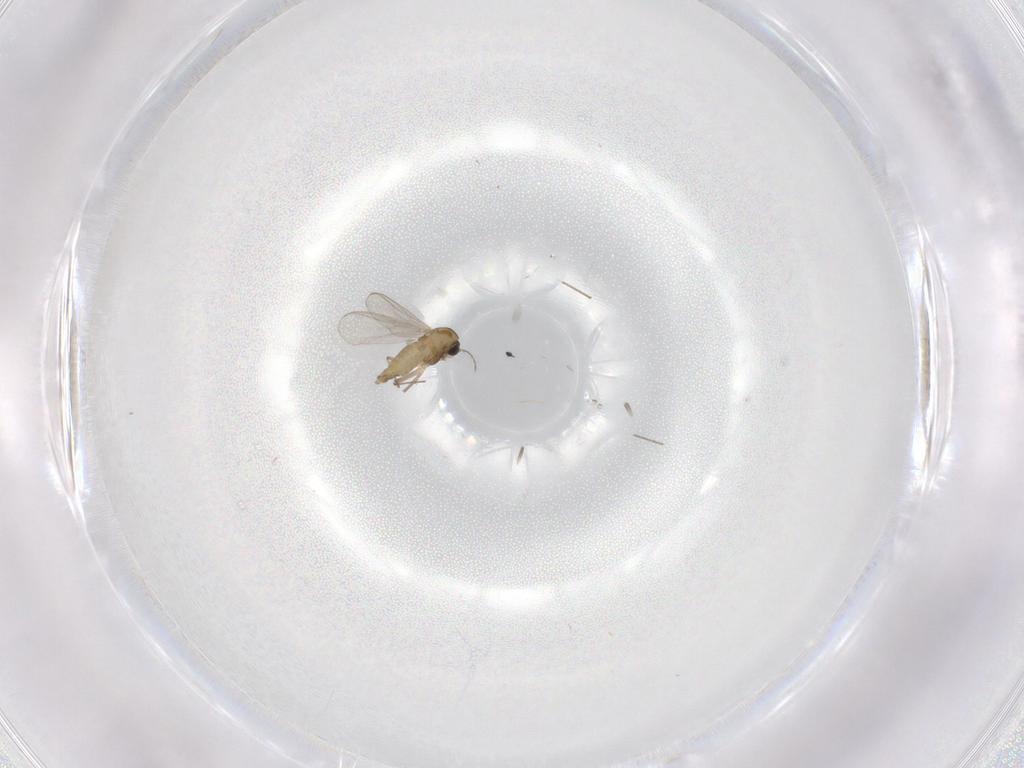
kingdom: Animalia
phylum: Arthropoda
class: Insecta
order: Diptera
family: Chironomidae
